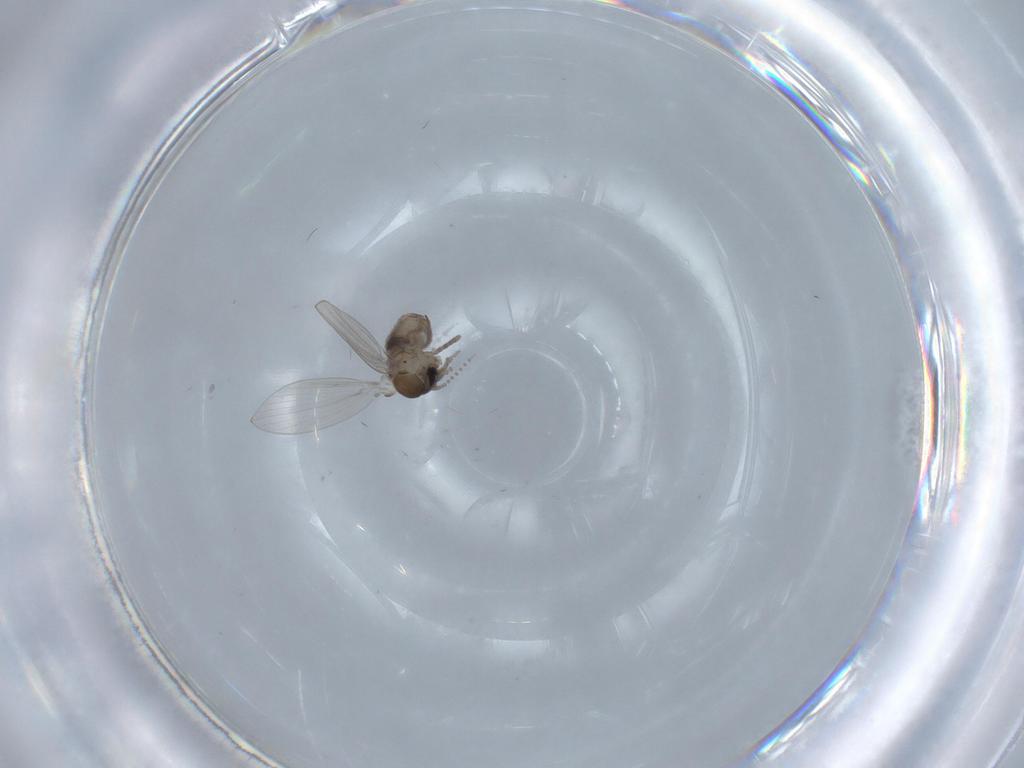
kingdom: Animalia
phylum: Arthropoda
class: Insecta
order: Diptera
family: Psychodidae
